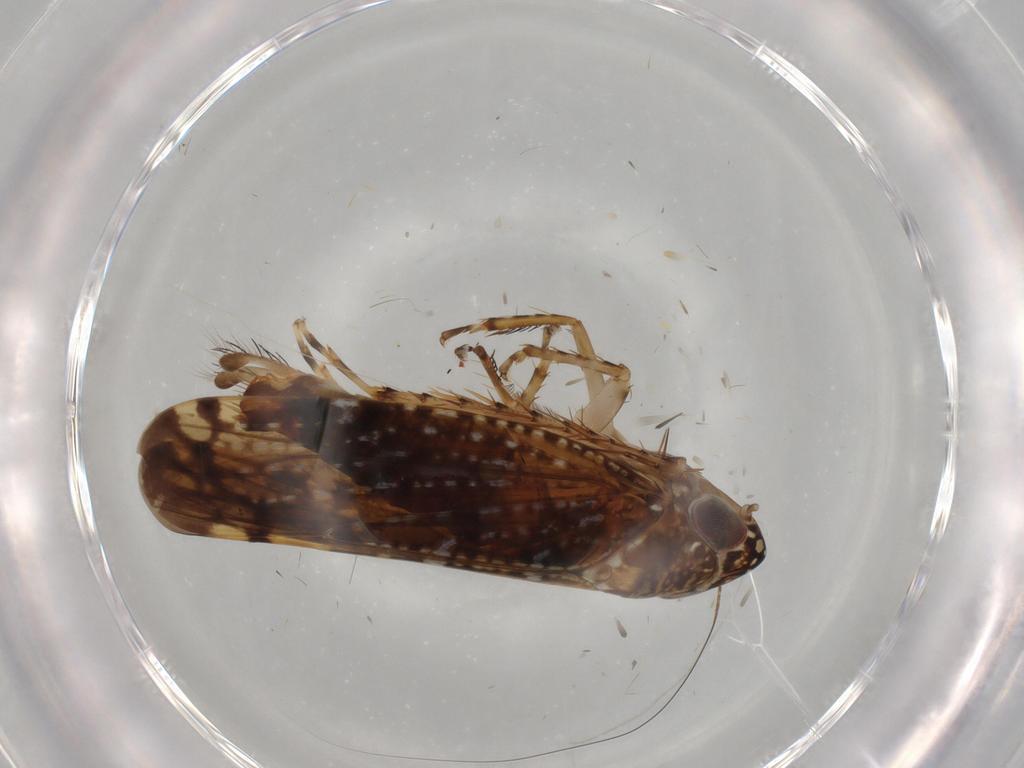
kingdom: Animalia
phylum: Arthropoda
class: Insecta
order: Hemiptera
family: Cicadellidae
